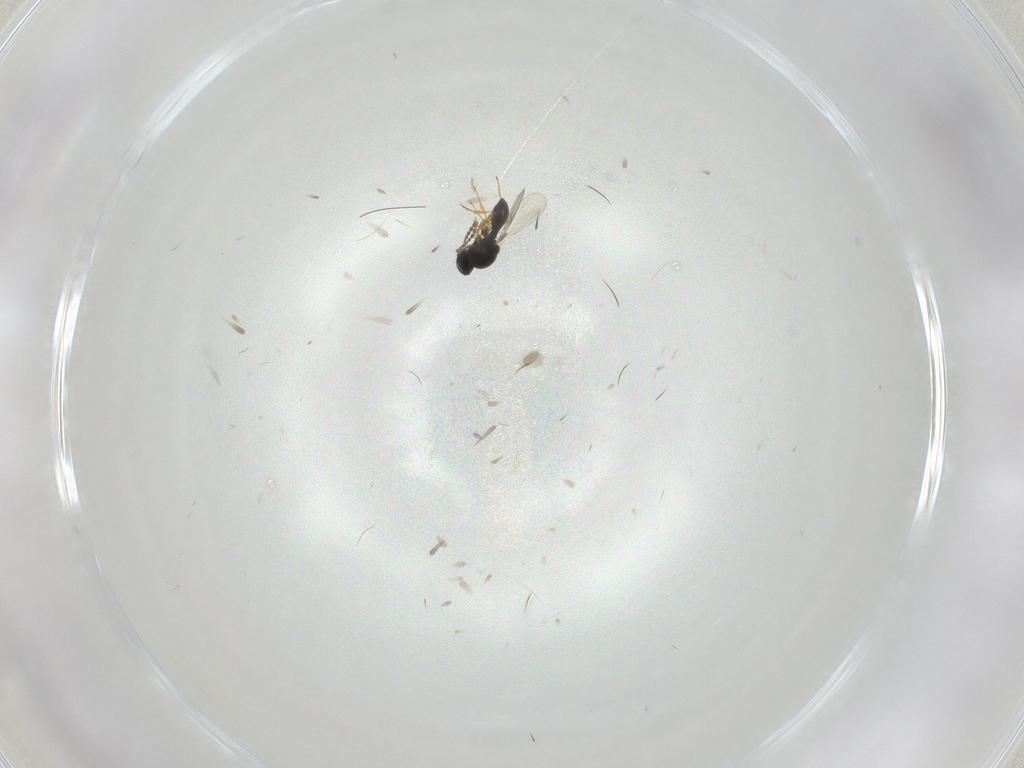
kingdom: Animalia
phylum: Arthropoda
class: Insecta
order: Hymenoptera
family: Platygastridae
